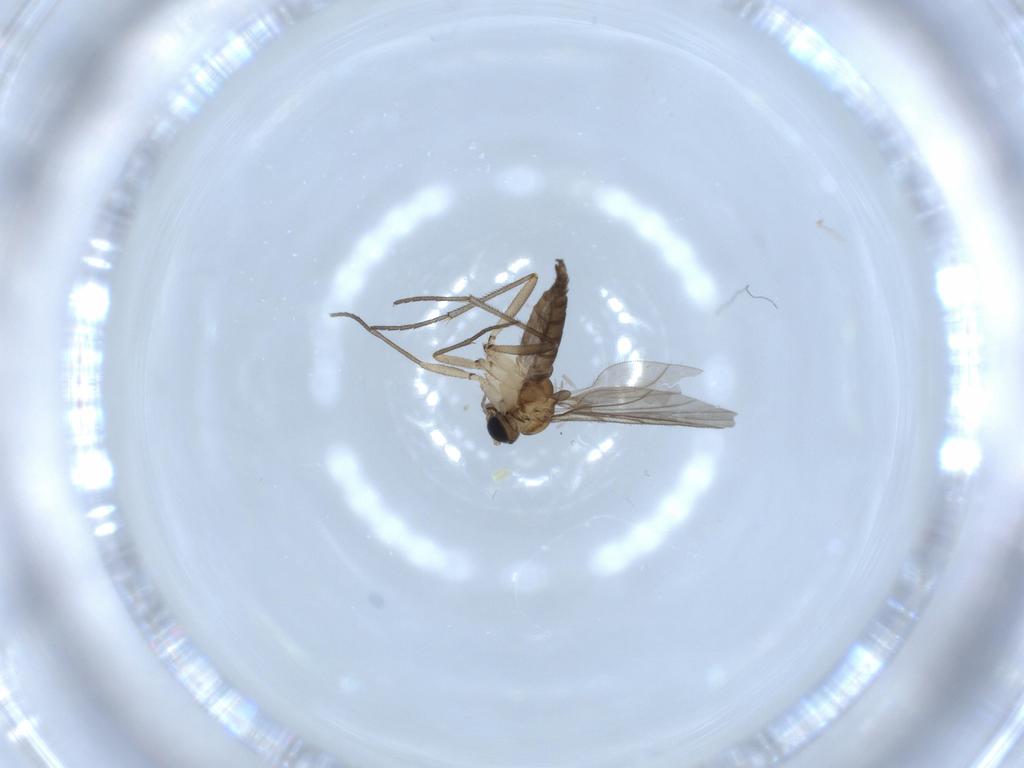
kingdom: Animalia
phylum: Arthropoda
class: Insecta
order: Diptera
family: Sciaridae
